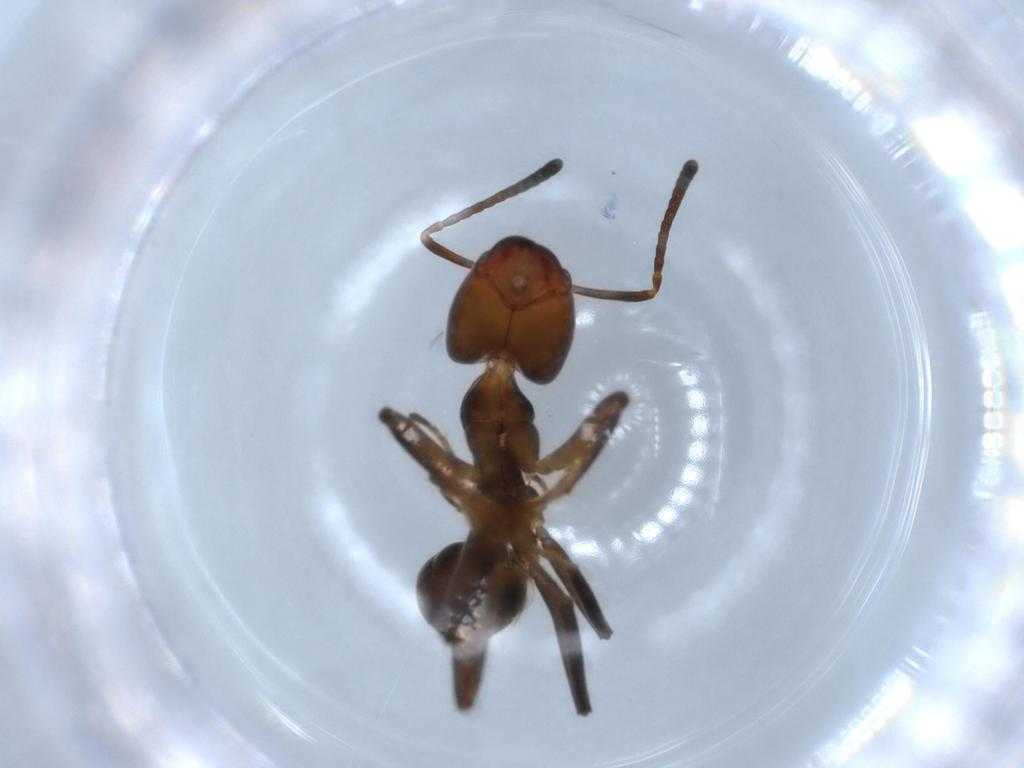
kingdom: Animalia
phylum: Arthropoda
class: Insecta
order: Hymenoptera
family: Formicidae
